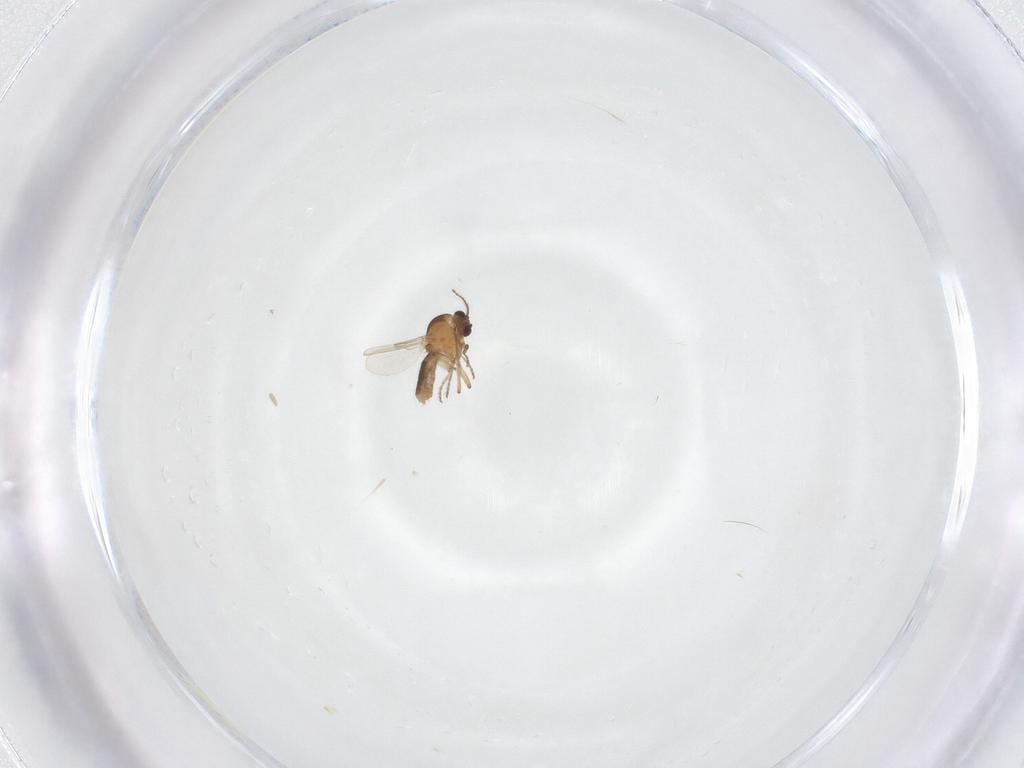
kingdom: Animalia
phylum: Arthropoda
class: Insecta
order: Diptera
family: Ceratopogonidae
